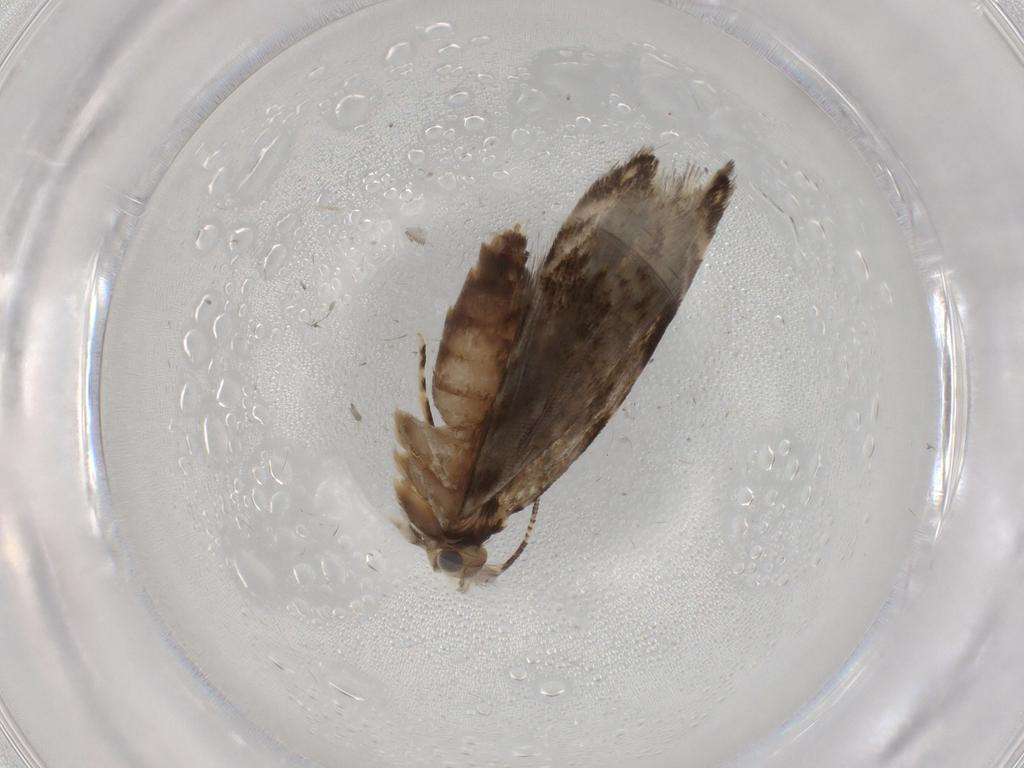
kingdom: Animalia
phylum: Arthropoda
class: Insecta
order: Lepidoptera
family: Tineidae
